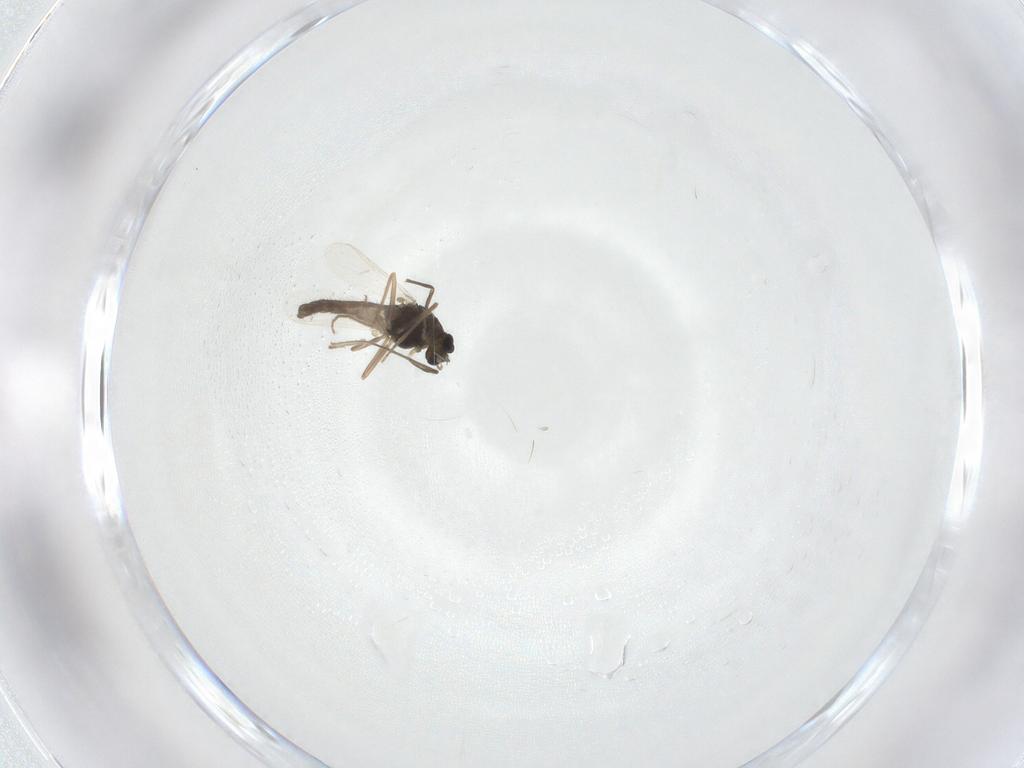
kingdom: Animalia
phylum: Arthropoda
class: Insecta
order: Diptera
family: Chironomidae
